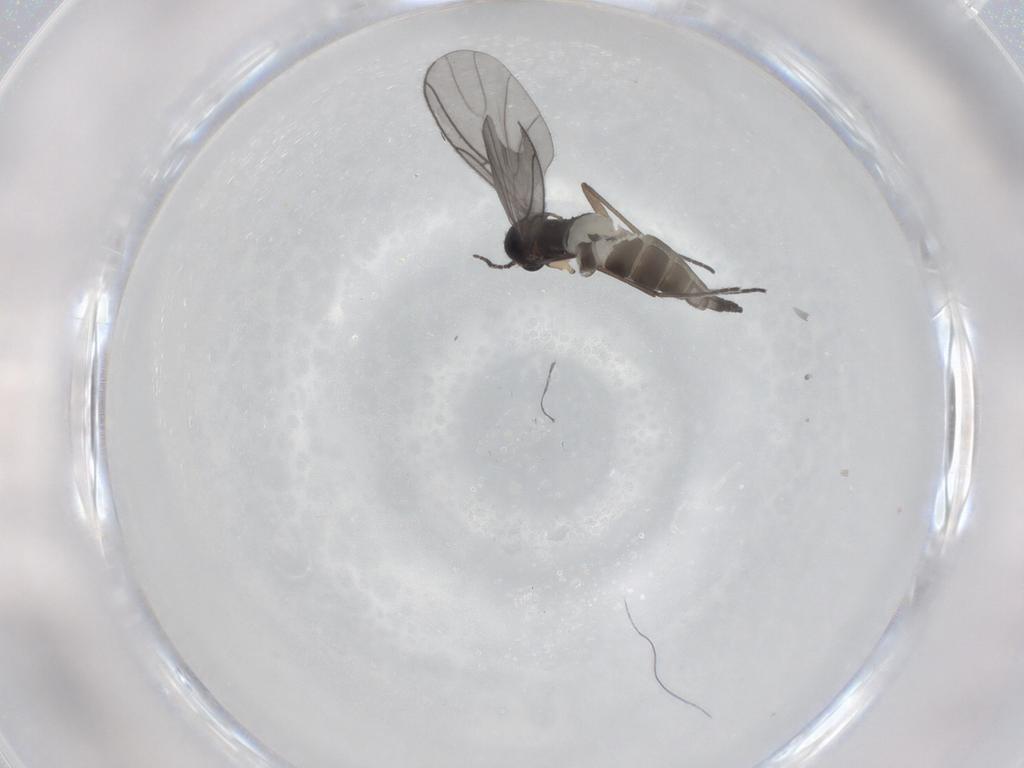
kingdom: Animalia
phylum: Arthropoda
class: Insecta
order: Diptera
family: Sciaridae
